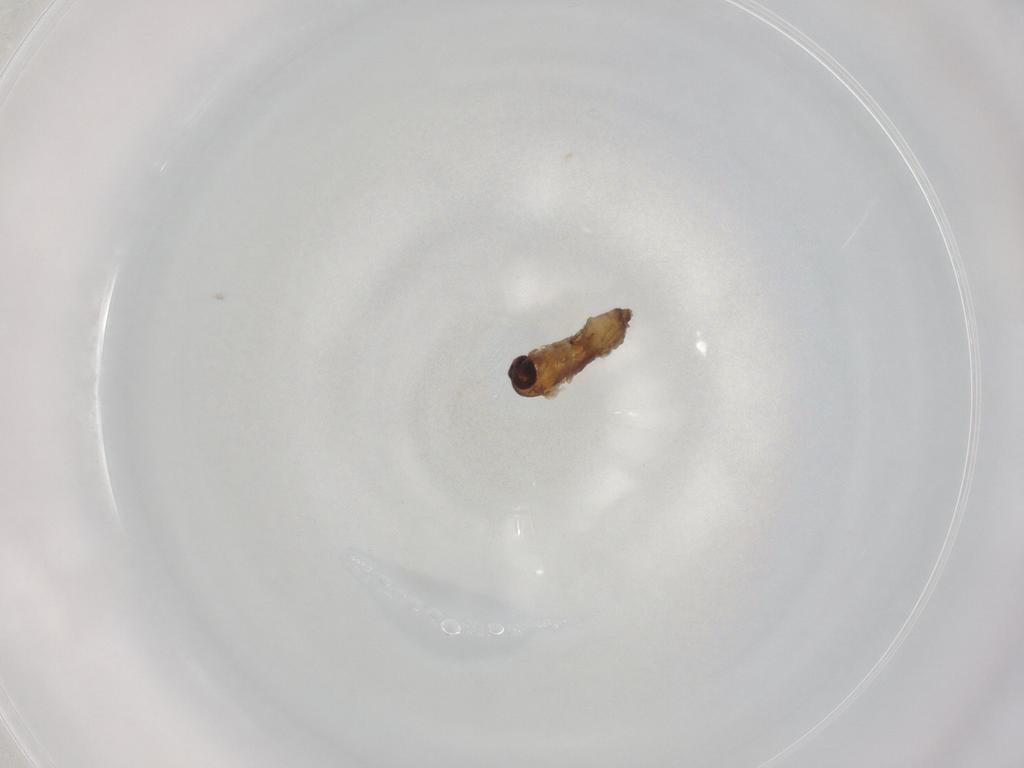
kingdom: Animalia
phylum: Arthropoda
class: Insecta
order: Diptera
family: Psychodidae
